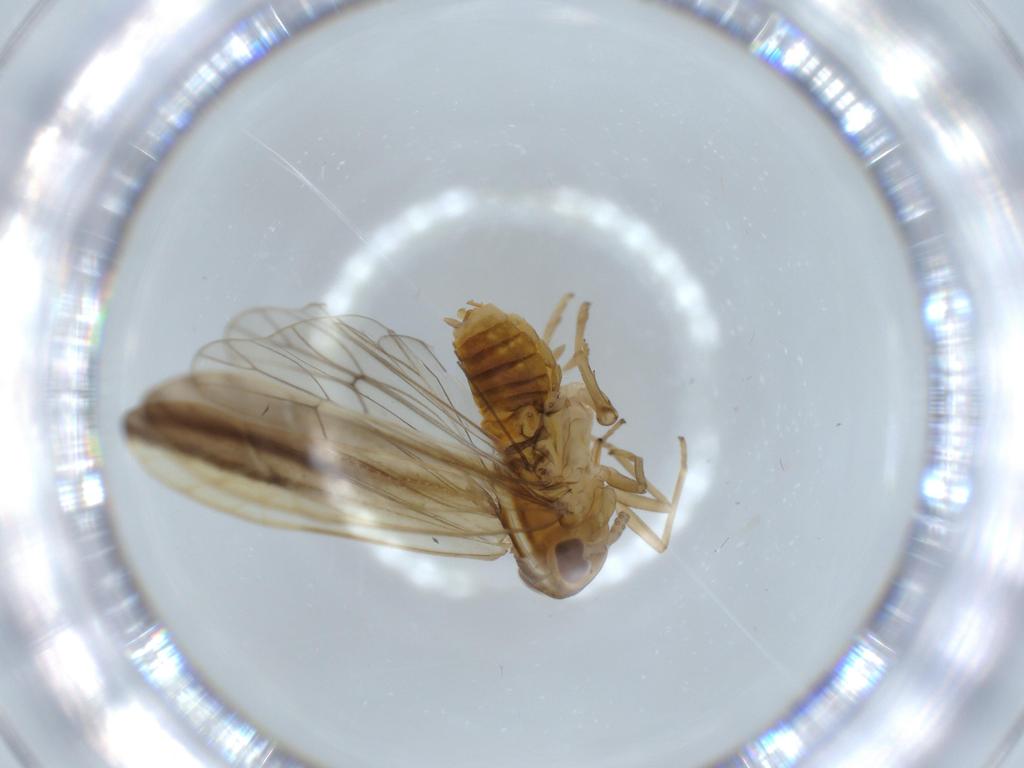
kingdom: Animalia
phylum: Arthropoda
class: Insecta
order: Hemiptera
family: Delphacidae
